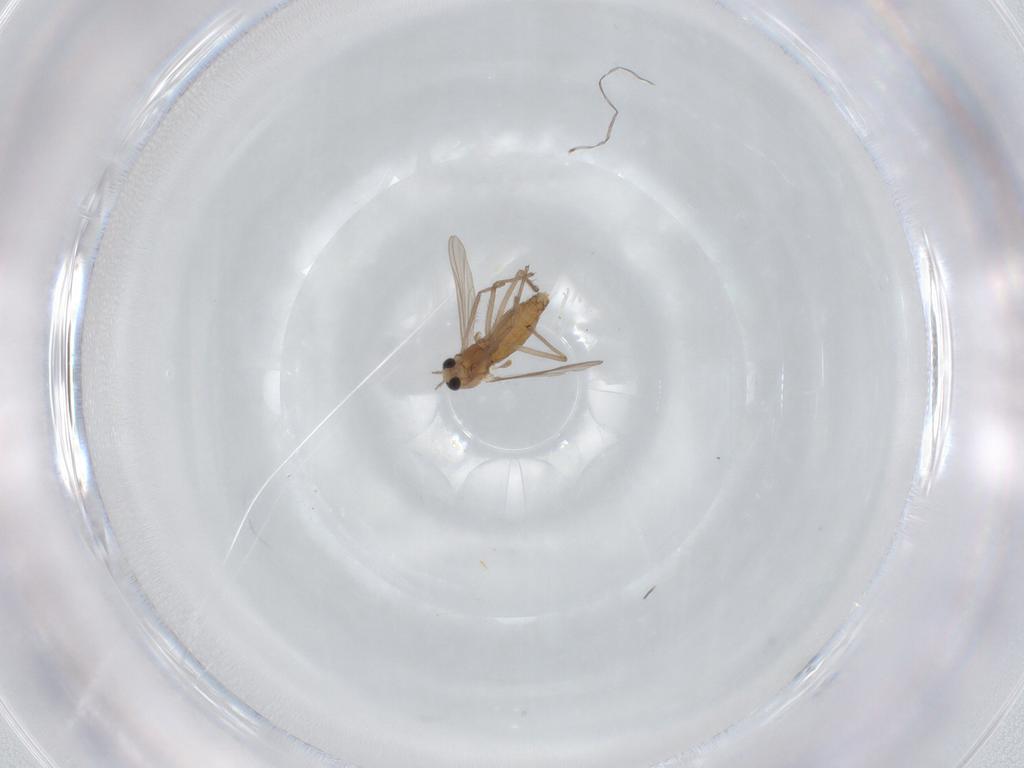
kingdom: Animalia
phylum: Arthropoda
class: Insecta
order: Diptera
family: Chironomidae
